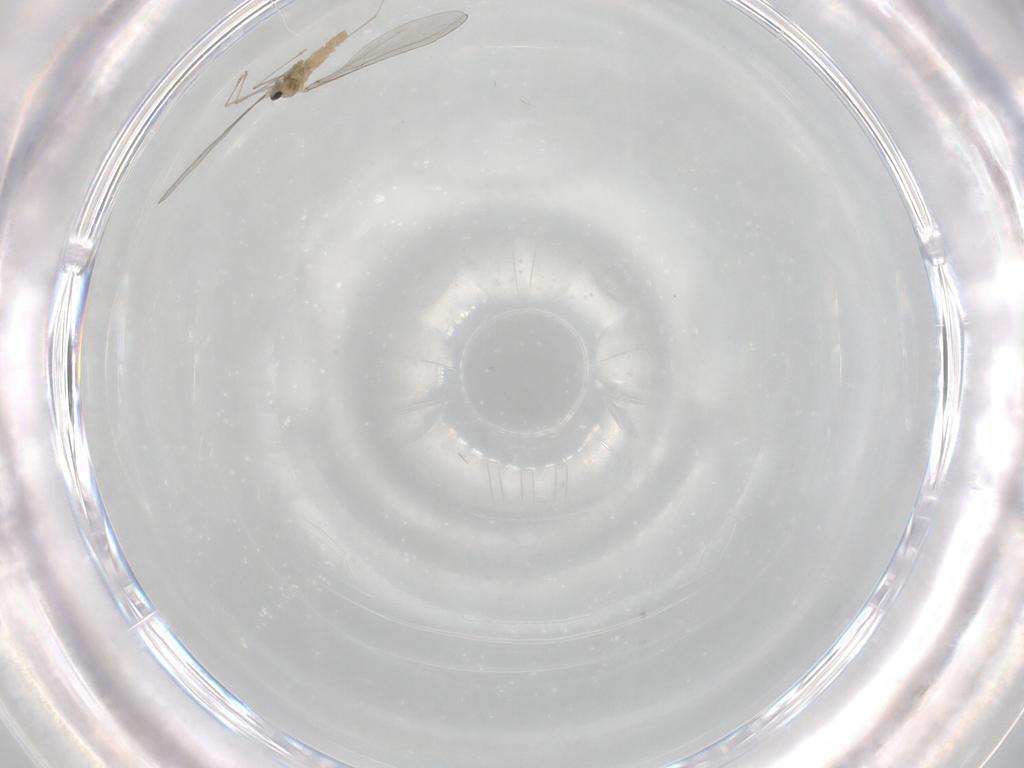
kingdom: Animalia
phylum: Arthropoda
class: Insecta
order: Diptera
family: Cecidomyiidae
